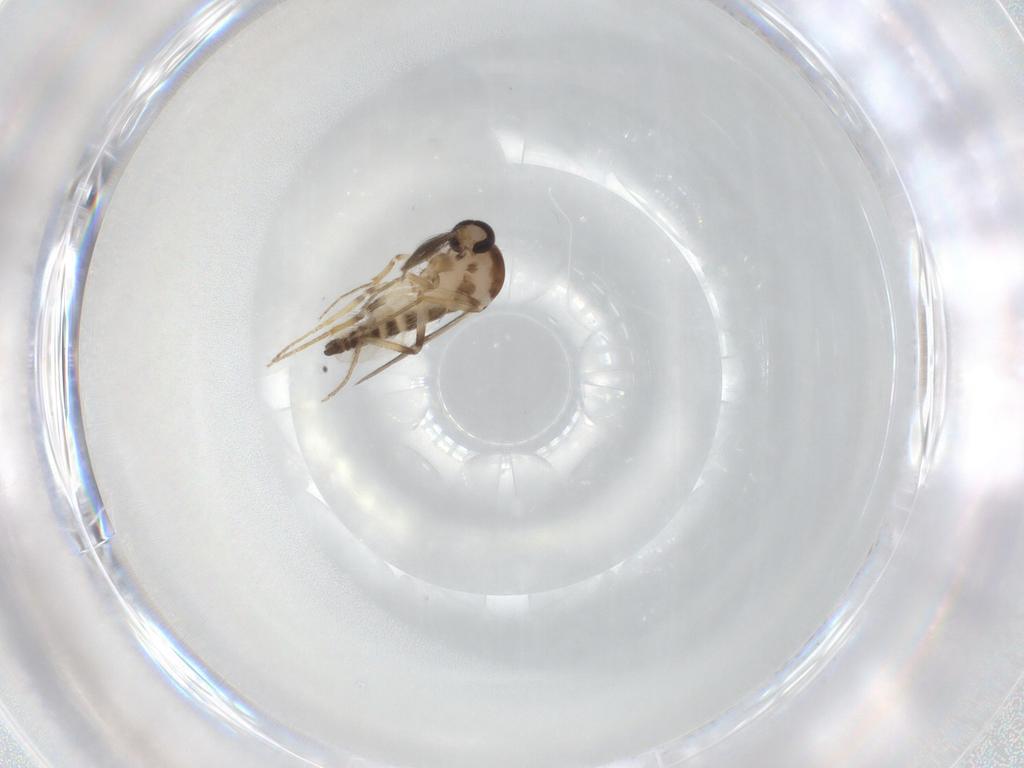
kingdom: Animalia
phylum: Arthropoda
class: Insecta
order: Diptera
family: Ceratopogonidae
